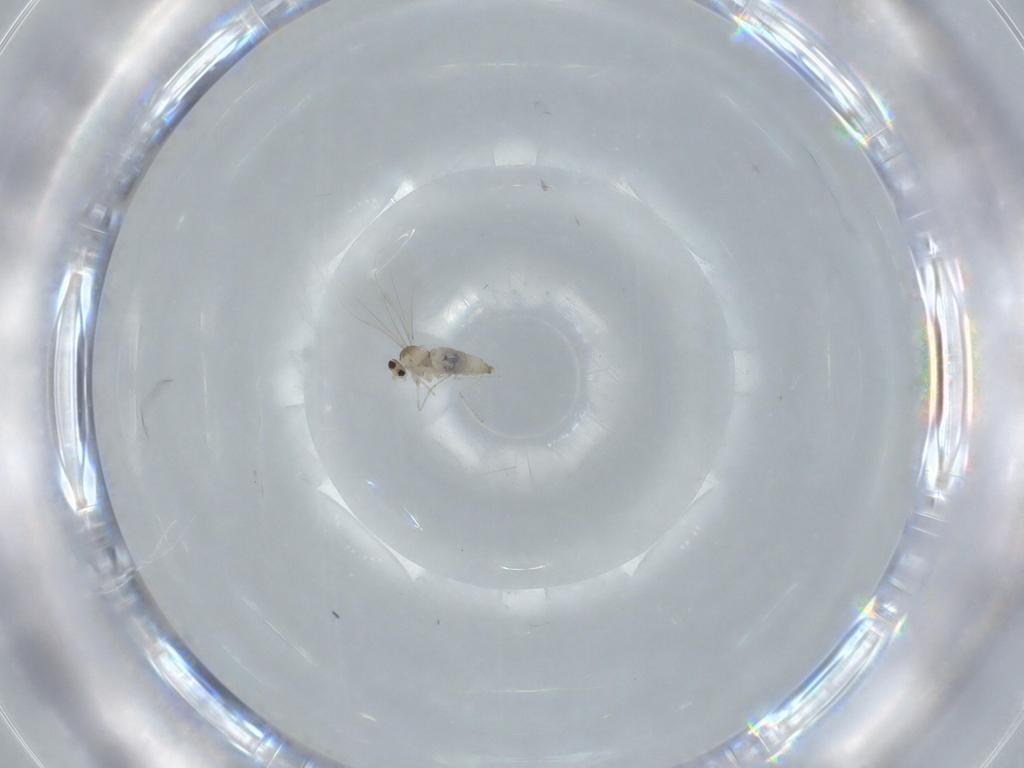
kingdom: Animalia
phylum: Arthropoda
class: Insecta
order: Diptera
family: Cecidomyiidae
